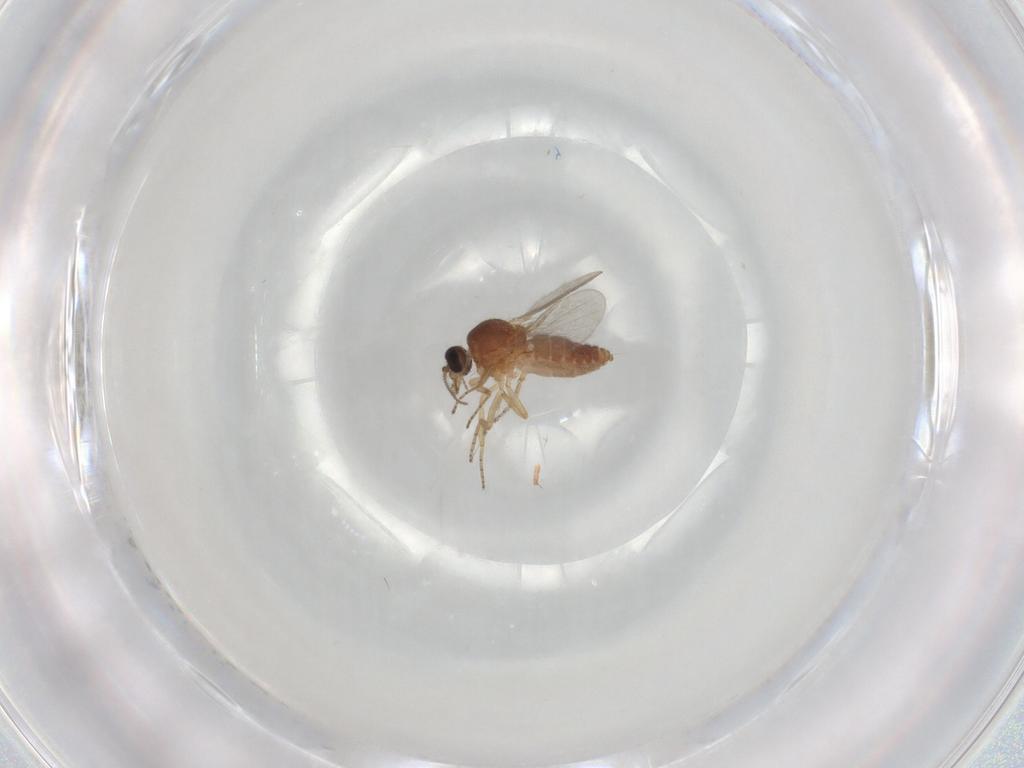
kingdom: Animalia
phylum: Arthropoda
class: Insecta
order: Diptera
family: Ceratopogonidae
